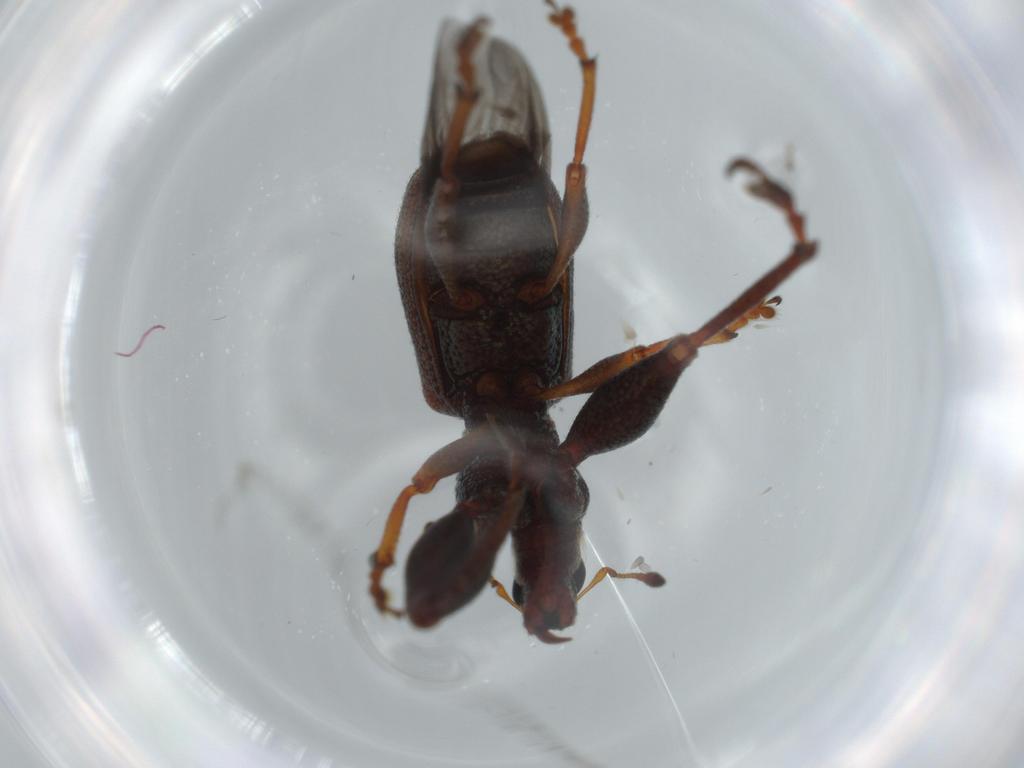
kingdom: Animalia
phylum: Arthropoda
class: Insecta
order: Coleoptera
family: Curculionidae
